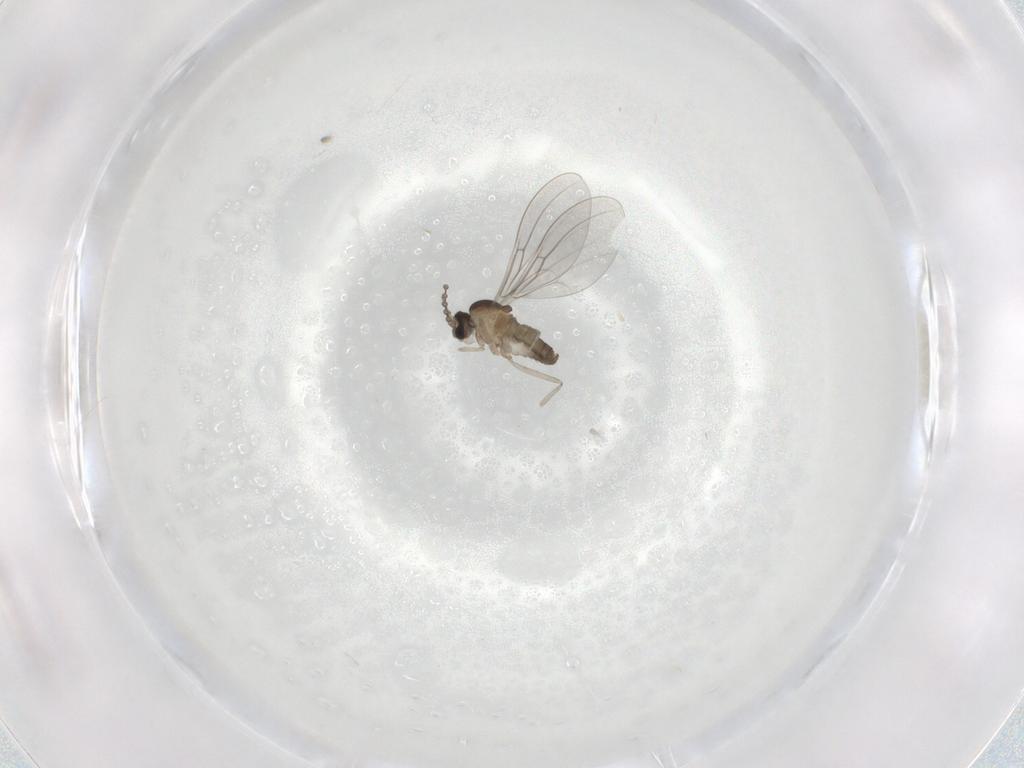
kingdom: Animalia
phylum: Arthropoda
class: Insecta
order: Diptera
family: Cecidomyiidae
